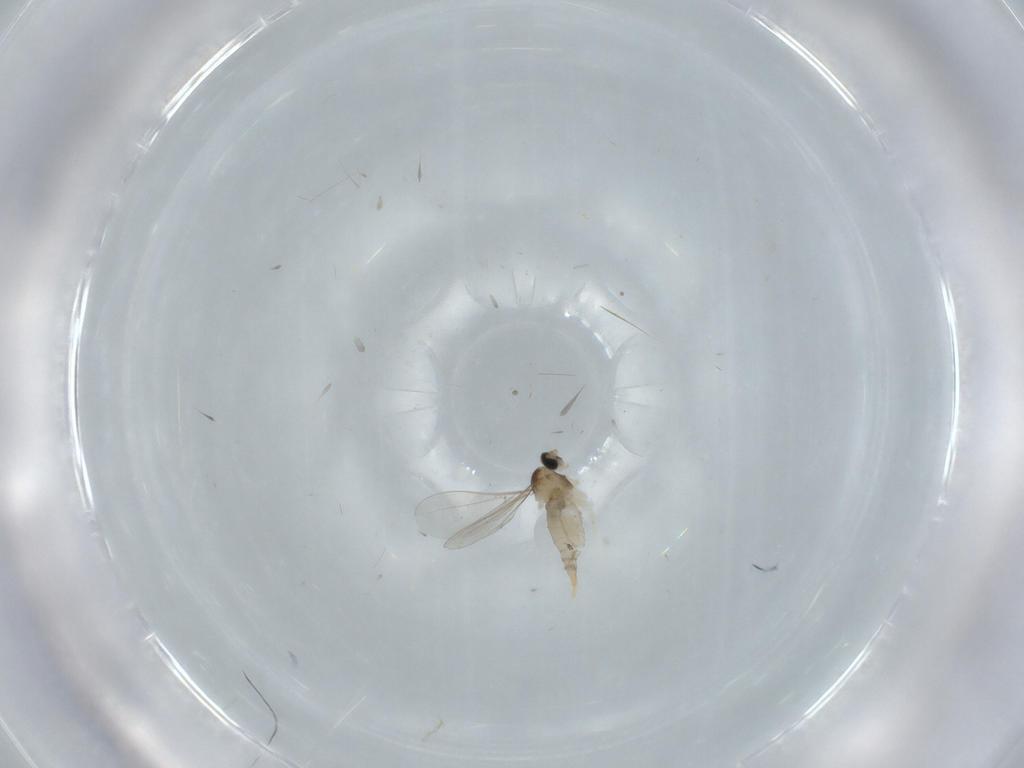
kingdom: Animalia
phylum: Arthropoda
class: Insecta
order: Diptera
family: Cecidomyiidae
